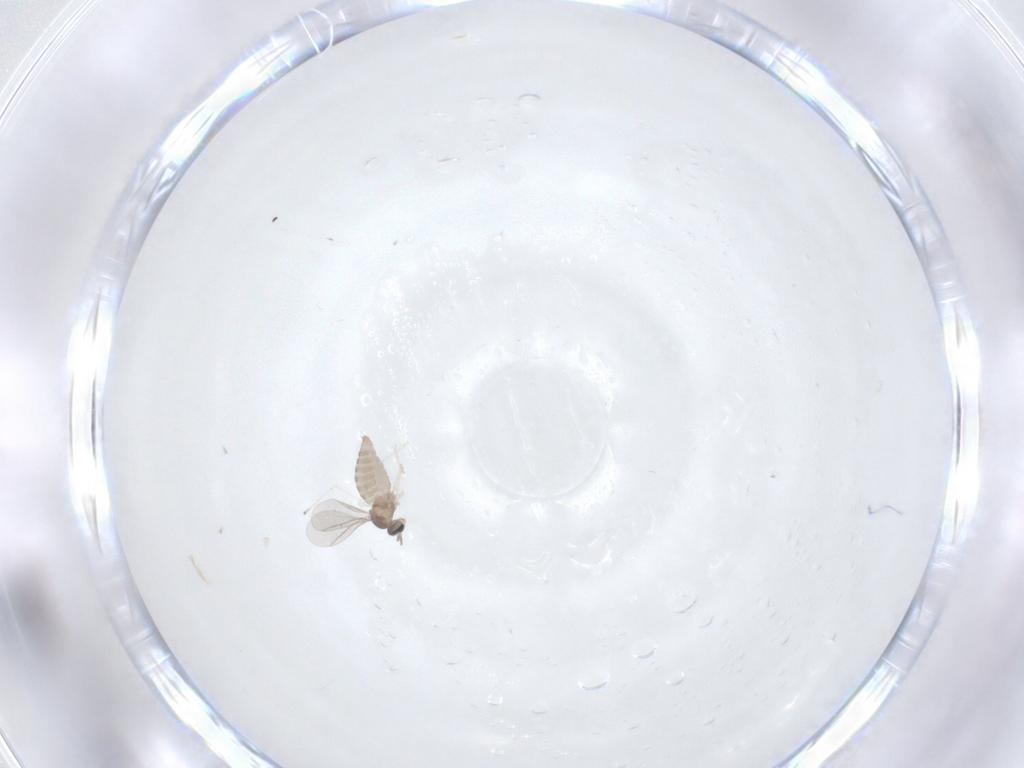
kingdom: Animalia
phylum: Arthropoda
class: Insecta
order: Diptera
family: Cecidomyiidae
